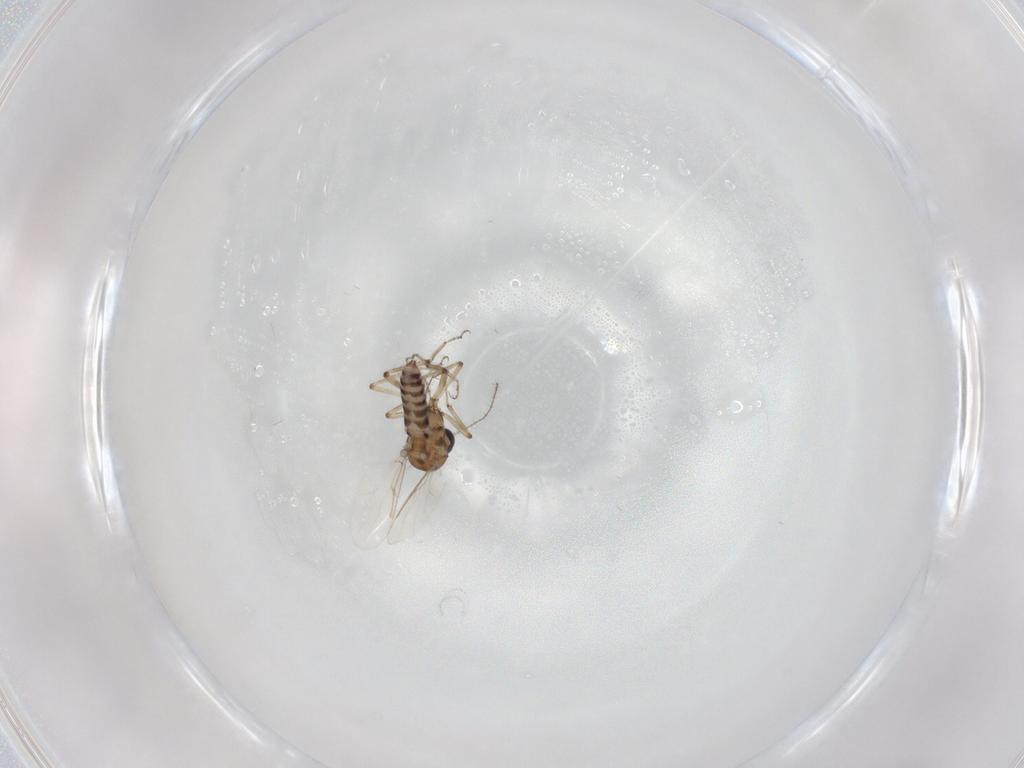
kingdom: Animalia
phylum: Arthropoda
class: Insecta
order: Diptera
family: Ceratopogonidae
